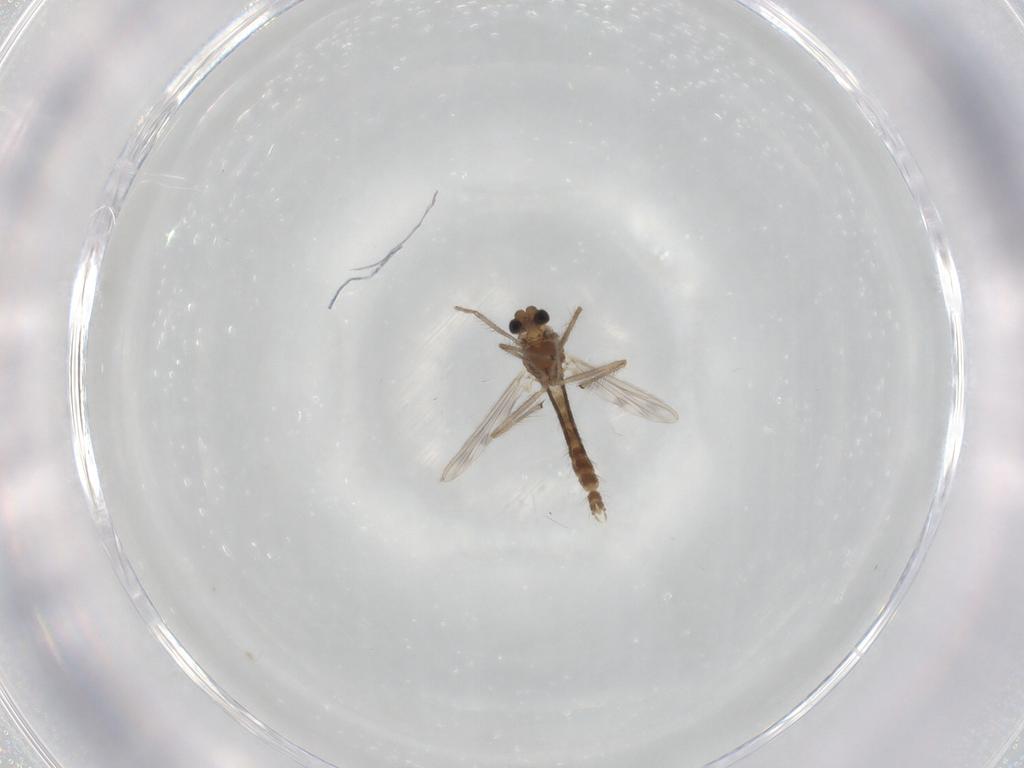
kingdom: Animalia
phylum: Arthropoda
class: Insecta
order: Diptera
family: Chironomidae
